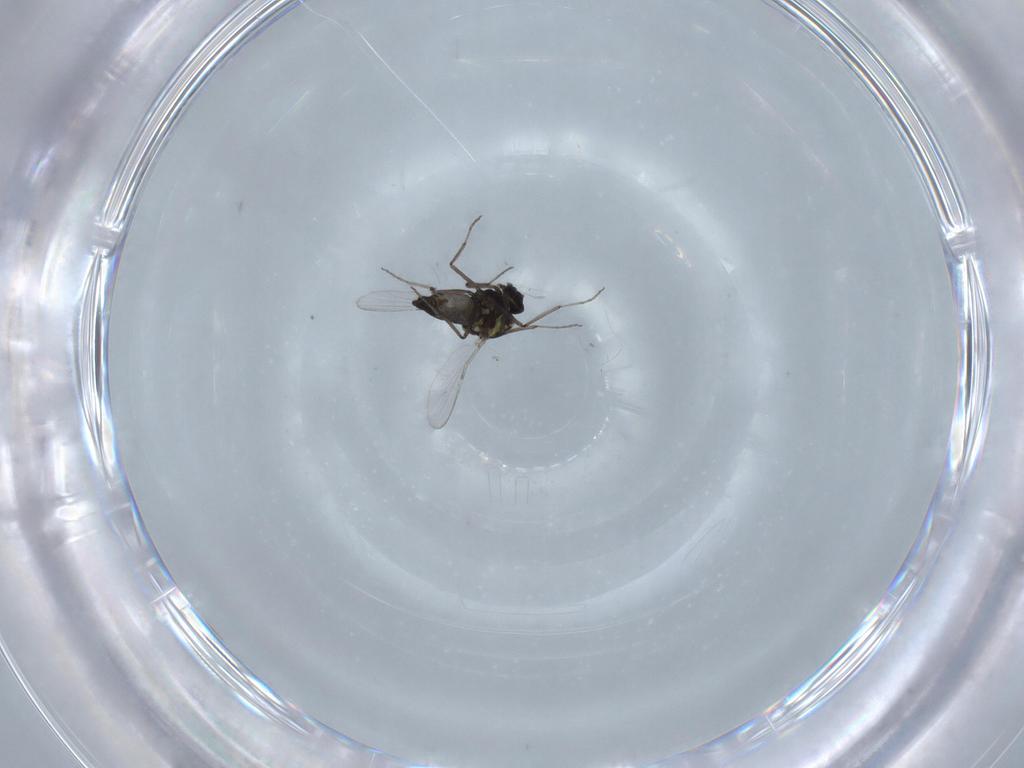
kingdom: Animalia
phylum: Arthropoda
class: Insecta
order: Diptera
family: Ceratopogonidae
